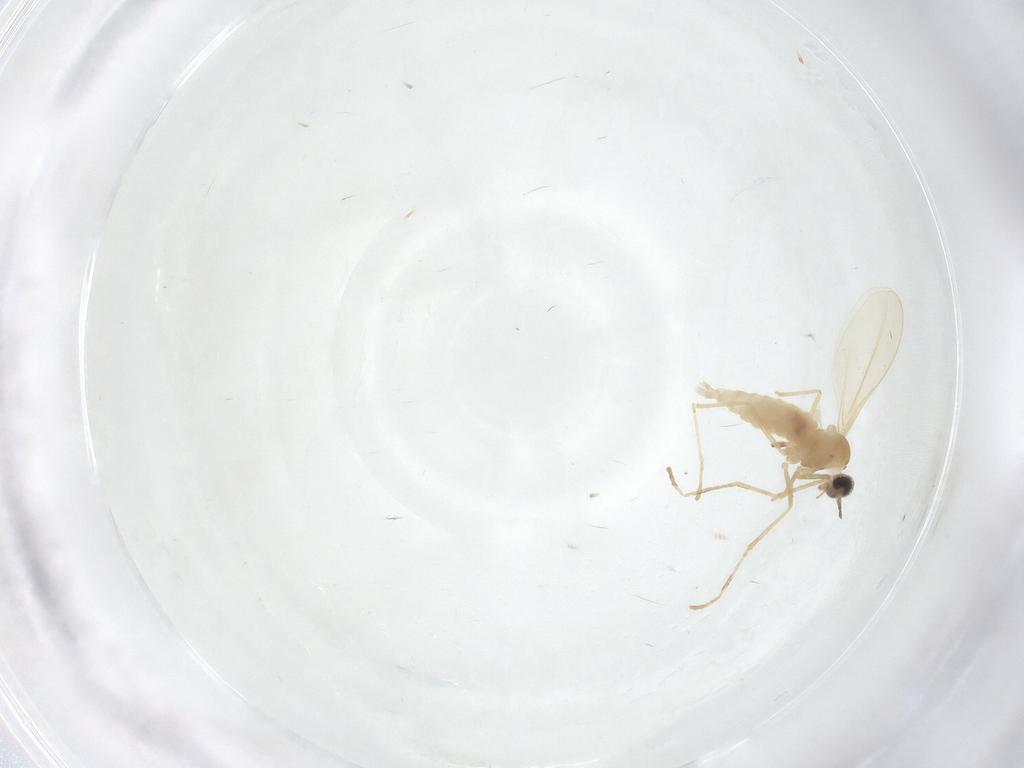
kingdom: Animalia
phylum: Arthropoda
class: Insecta
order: Diptera
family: Cecidomyiidae
